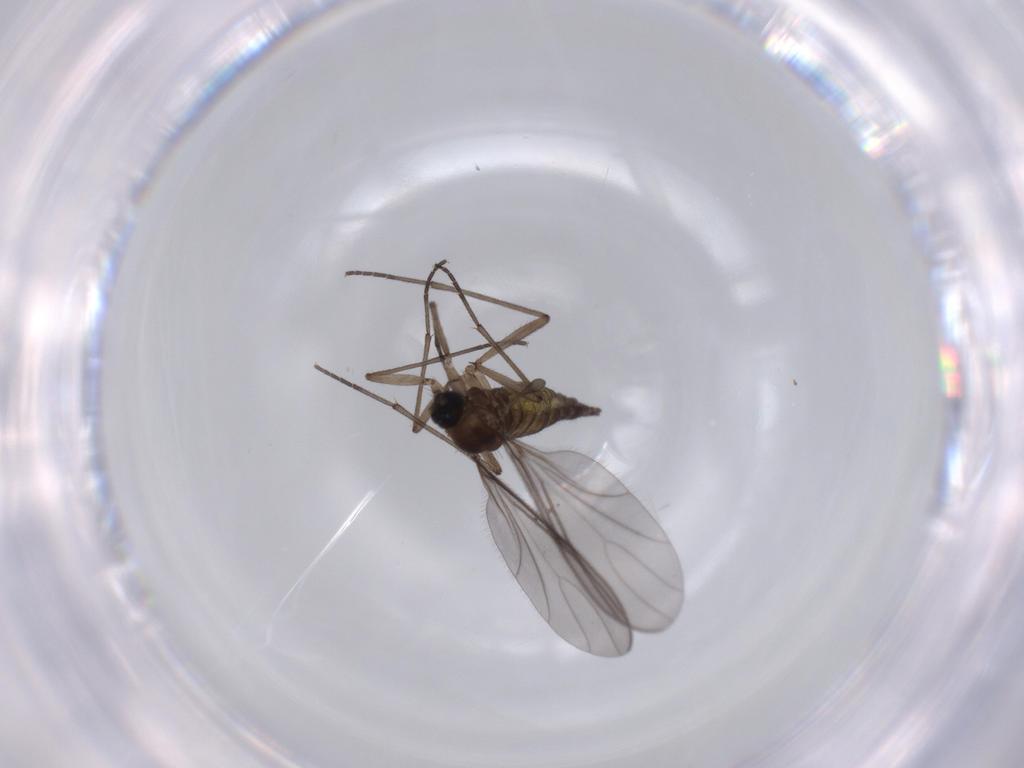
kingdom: Animalia
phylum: Arthropoda
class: Insecta
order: Diptera
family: Sciaridae
